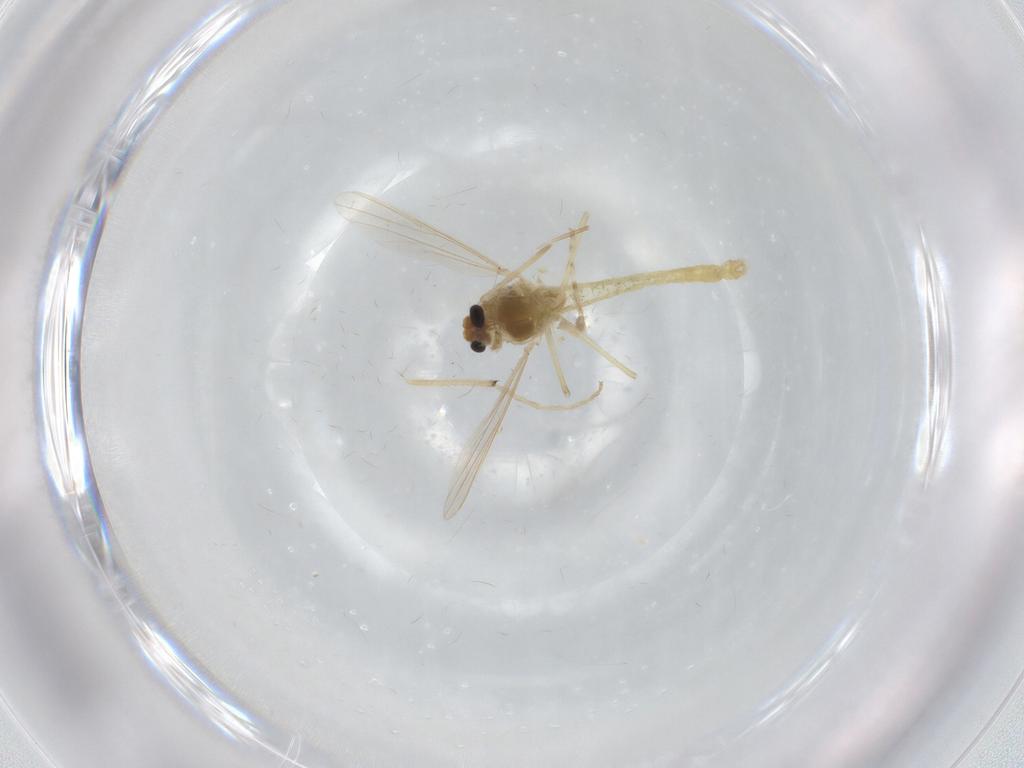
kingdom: Animalia
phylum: Arthropoda
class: Insecta
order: Diptera
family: Chironomidae
